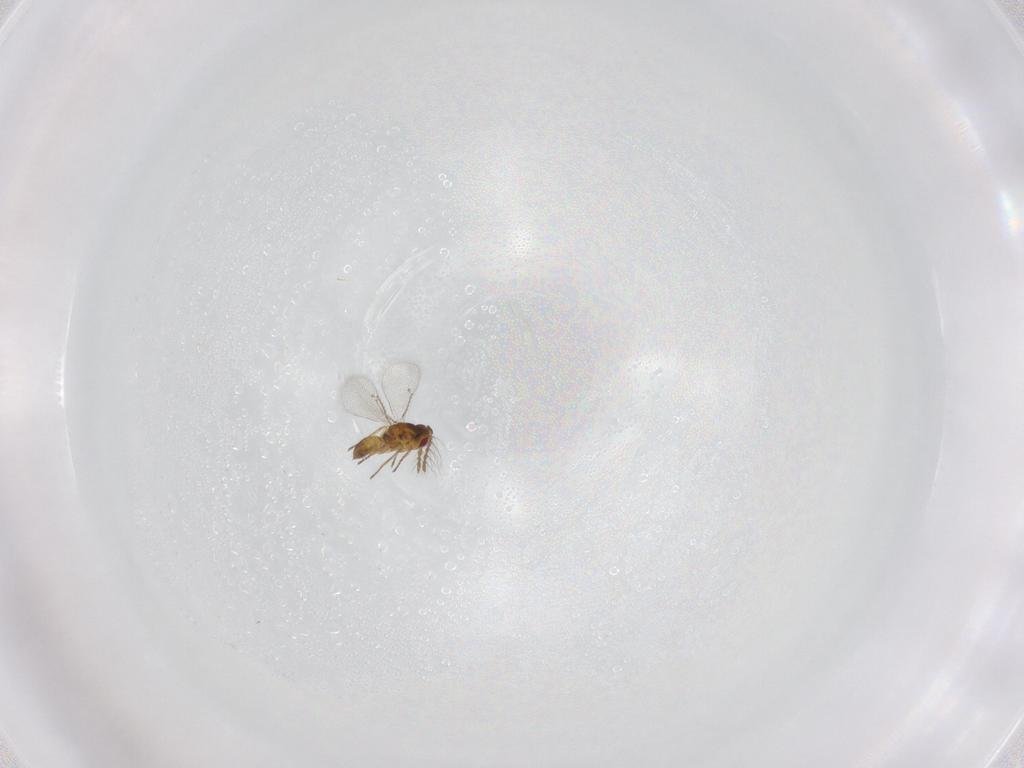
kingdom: Animalia
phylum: Arthropoda
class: Insecta
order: Hymenoptera
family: Eulophidae
